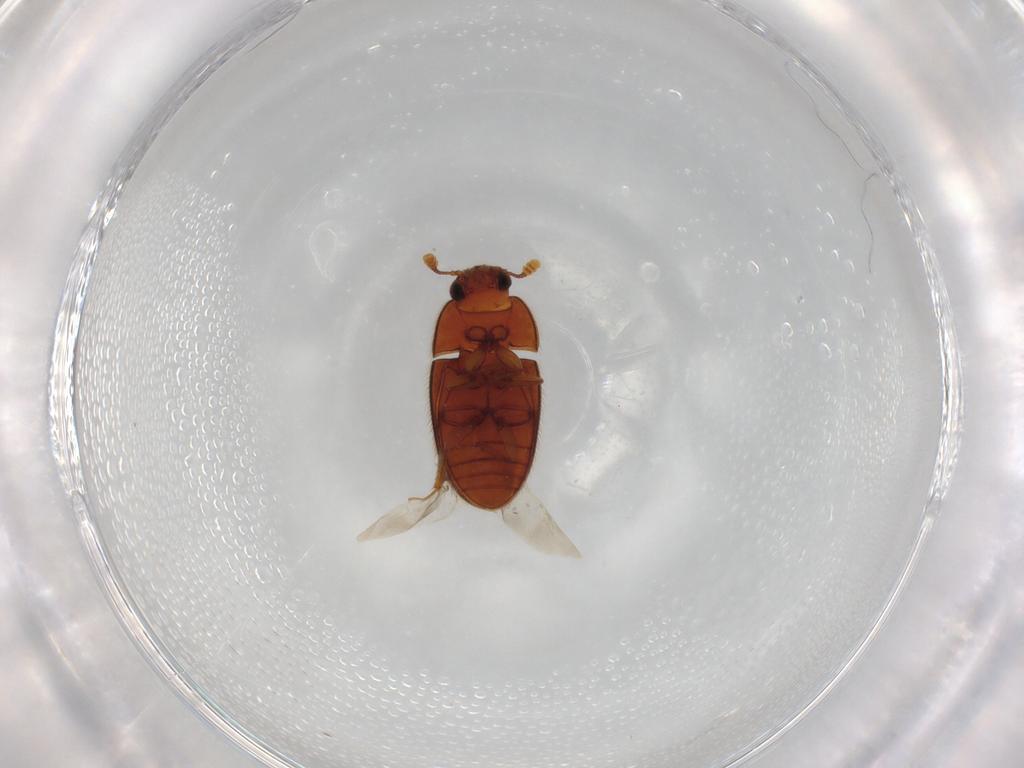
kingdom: Animalia
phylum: Arthropoda
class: Insecta
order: Coleoptera
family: Biphyllidae
